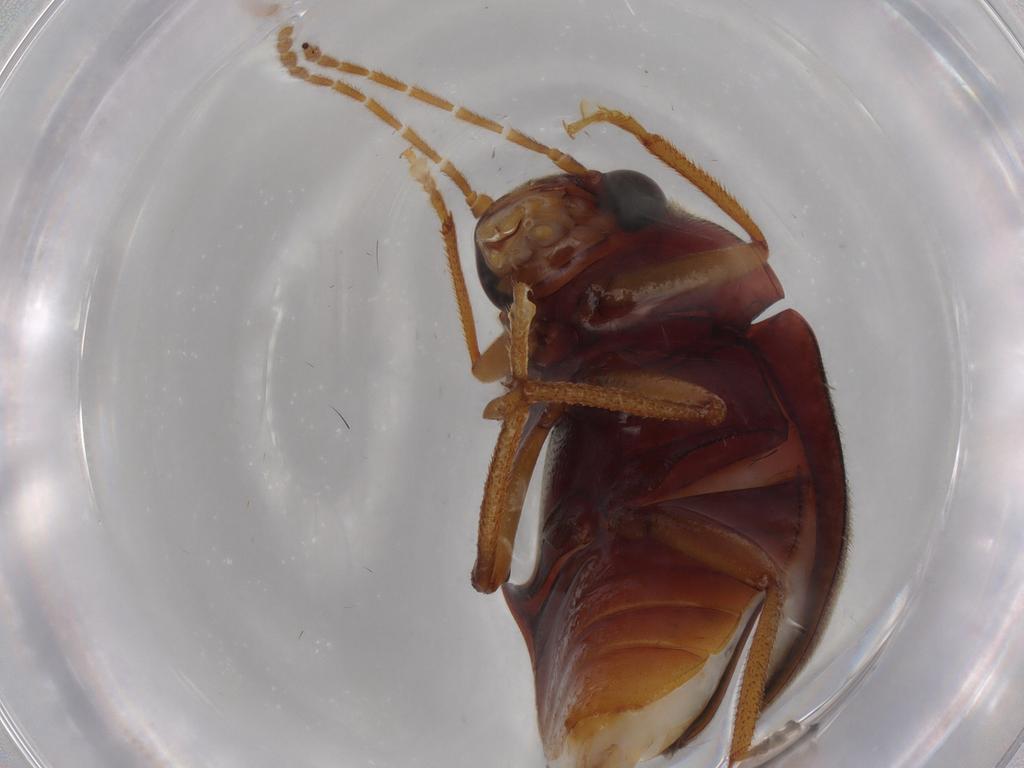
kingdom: Animalia
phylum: Arthropoda
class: Insecta
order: Coleoptera
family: Ptilodactylidae
